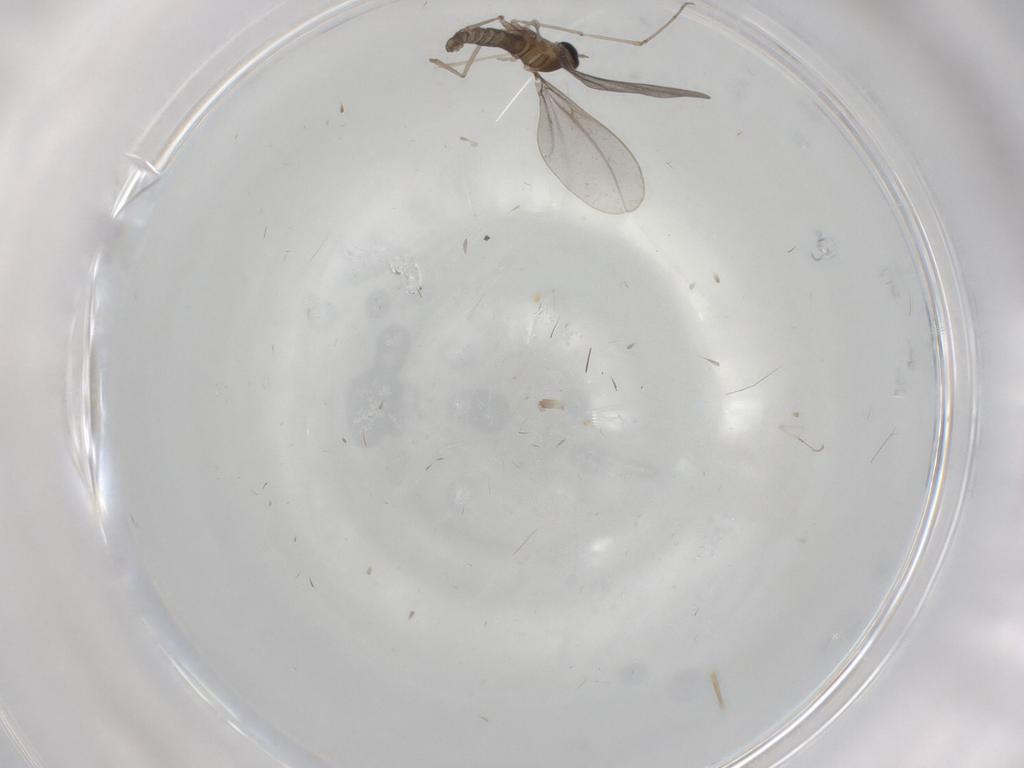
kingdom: Animalia
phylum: Arthropoda
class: Insecta
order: Diptera
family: Cecidomyiidae
